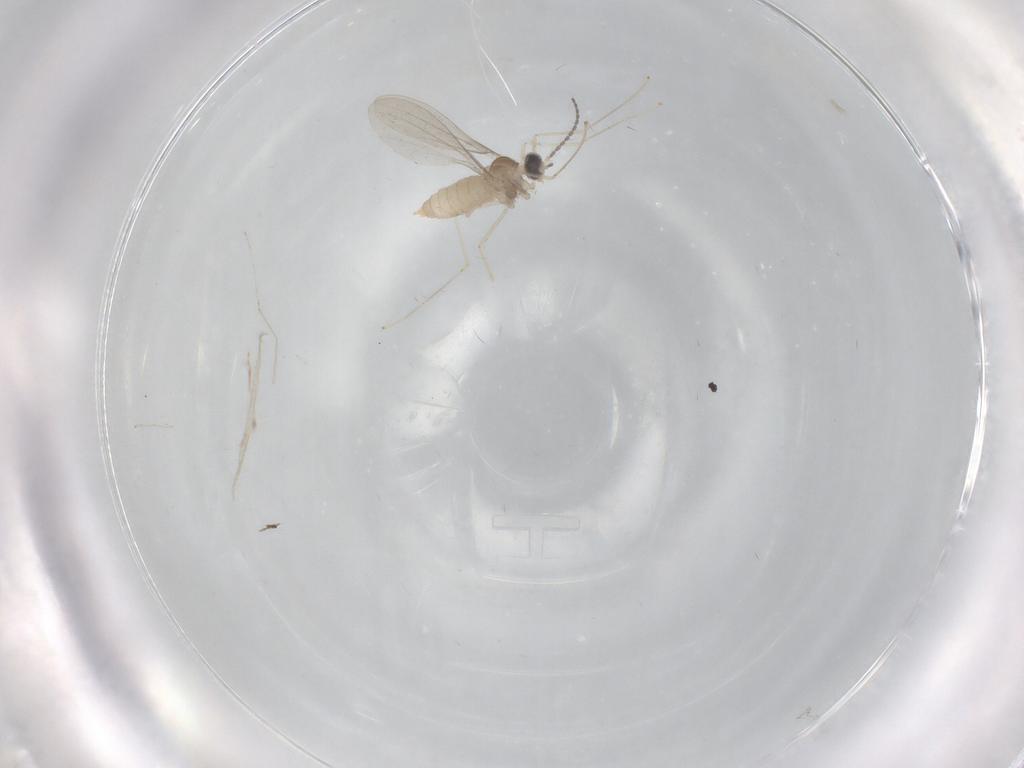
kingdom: Animalia
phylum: Arthropoda
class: Insecta
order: Diptera
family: Cecidomyiidae
